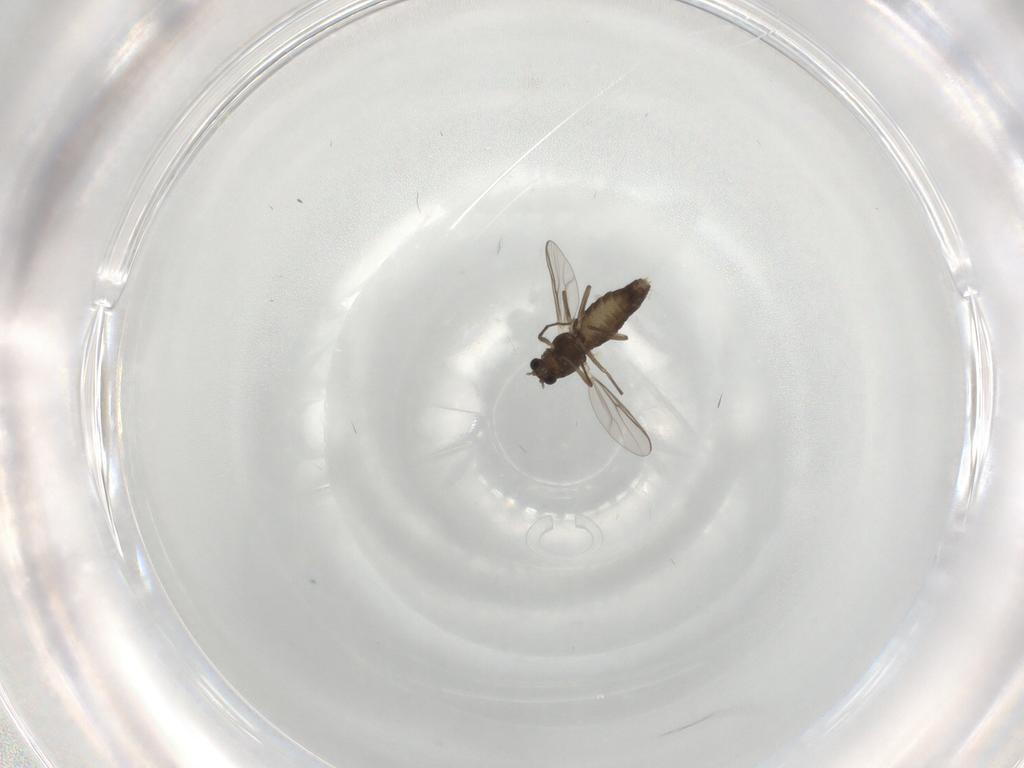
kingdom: Animalia
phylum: Arthropoda
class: Insecta
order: Diptera
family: Chironomidae
